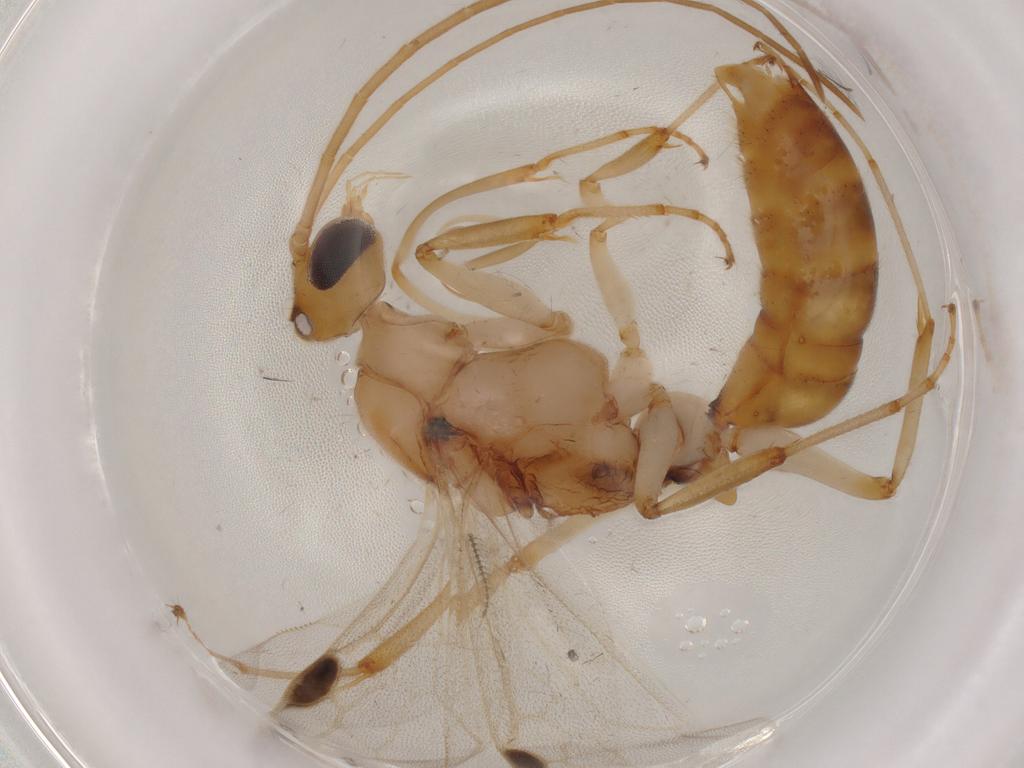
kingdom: Animalia
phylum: Arthropoda
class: Insecta
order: Hymenoptera
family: Formicidae
